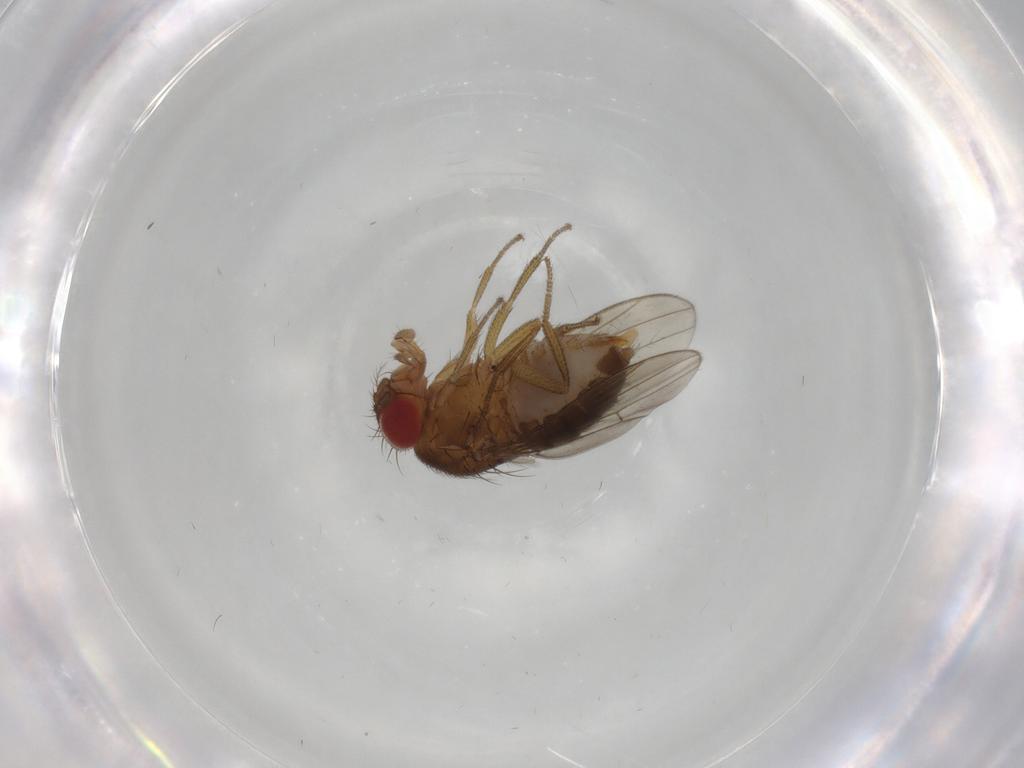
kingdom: Animalia
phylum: Arthropoda
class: Insecta
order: Diptera
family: Drosophilidae
